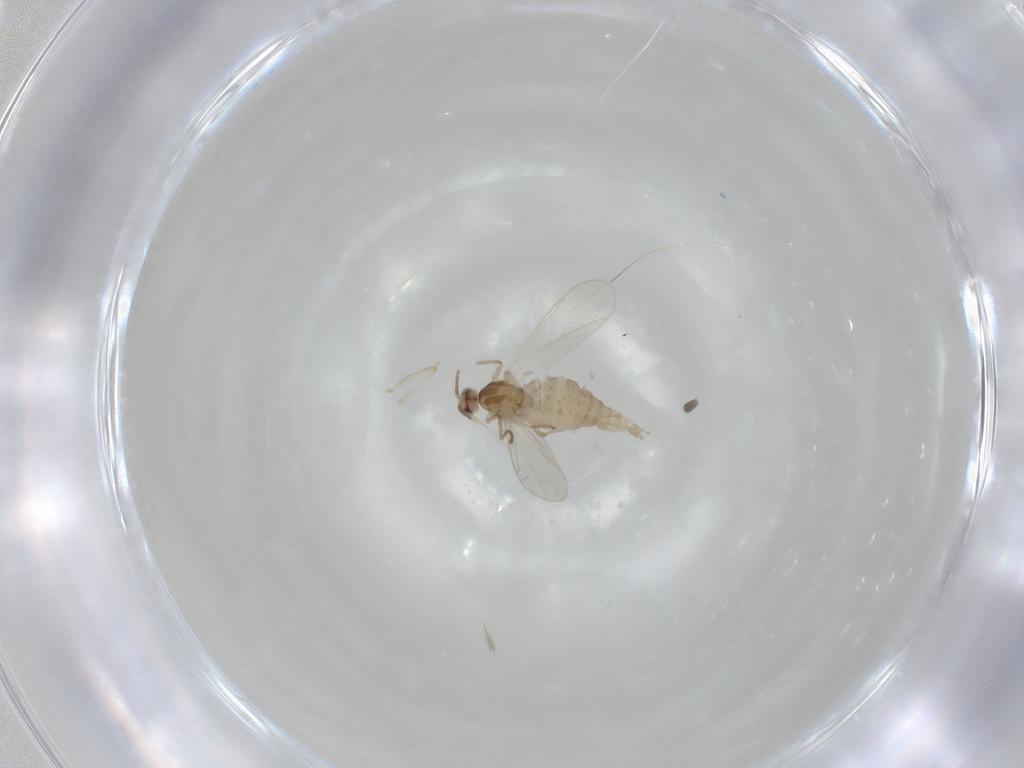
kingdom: Animalia
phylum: Arthropoda
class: Insecta
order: Diptera
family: Cecidomyiidae
